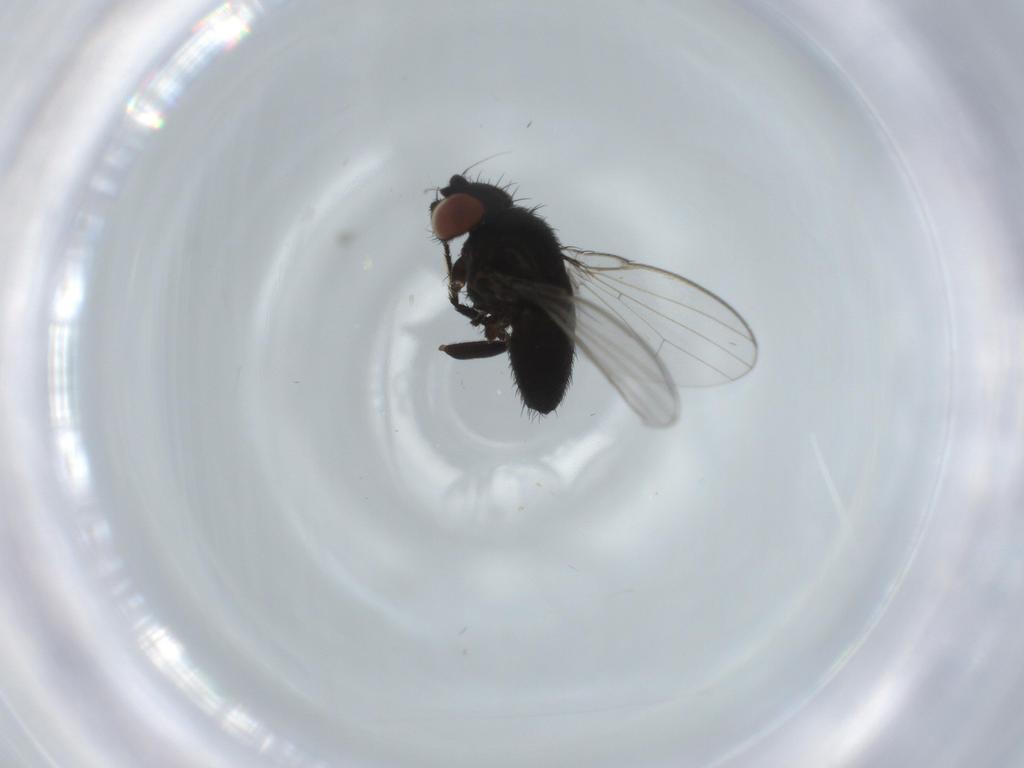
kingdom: Animalia
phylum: Arthropoda
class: Insecta
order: Diptera
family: Milichiidae
